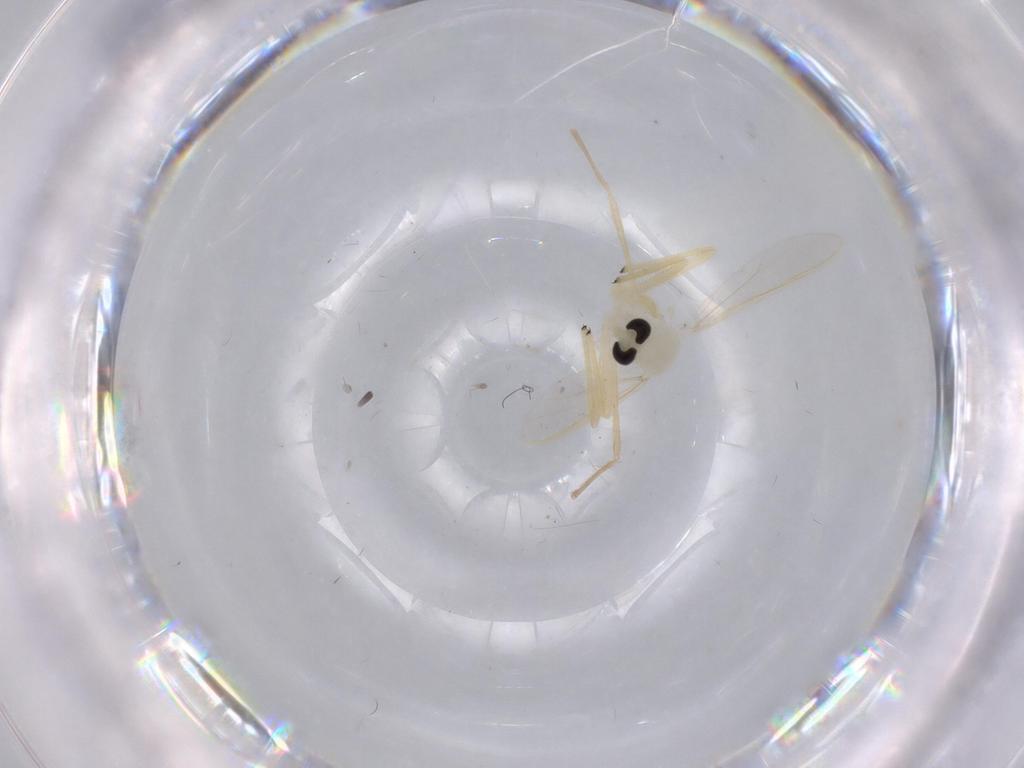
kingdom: Animalia
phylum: Arthropoda
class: Insecta
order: Diptera
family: Chironomidae
